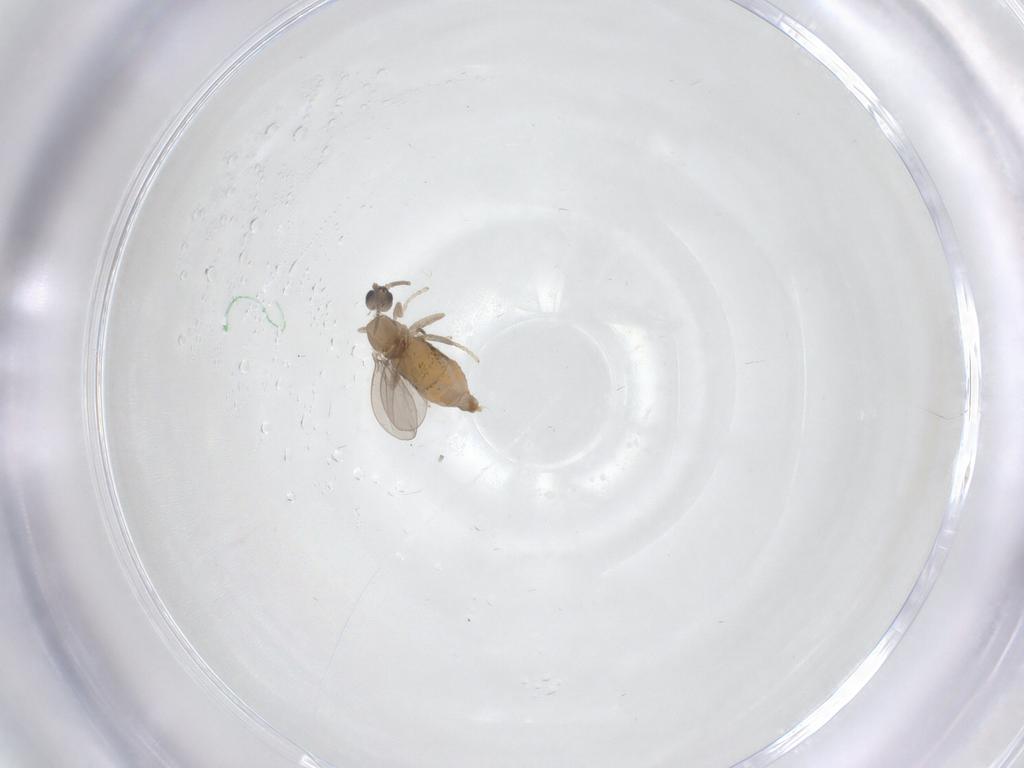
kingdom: Animalia
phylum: Arthropoda
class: Insecta
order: Diptera
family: Cecidomyiidae
